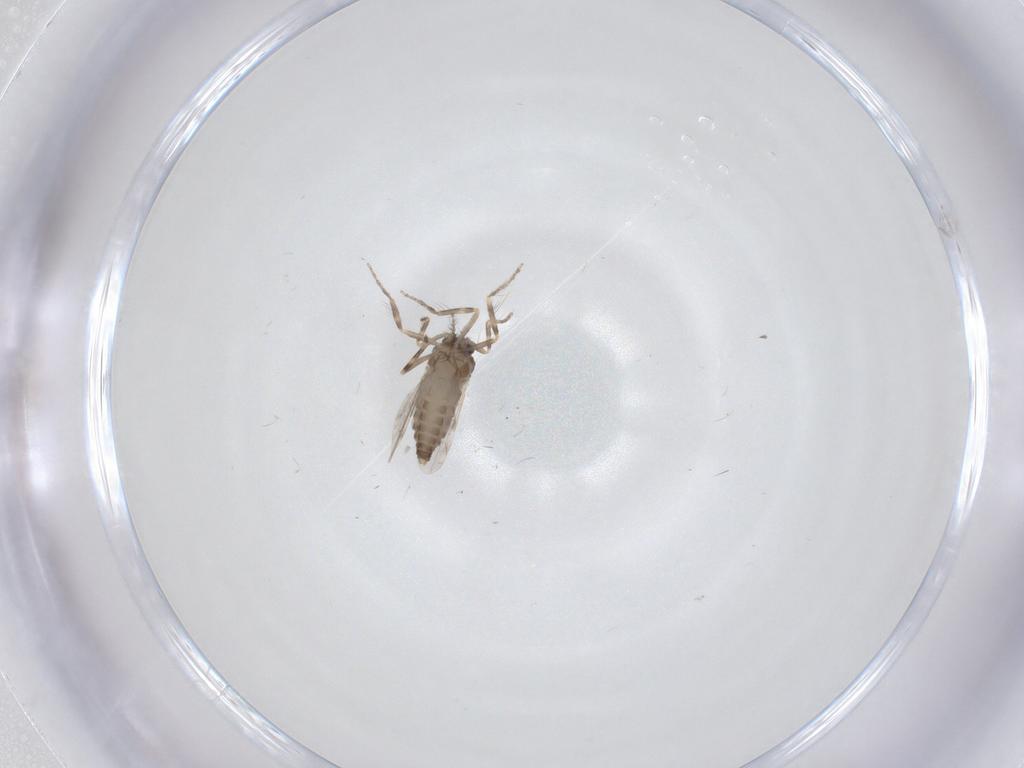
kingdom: Animalia
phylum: Arthropoda
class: Insecta
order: Diptera
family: Ceratopogonidae
